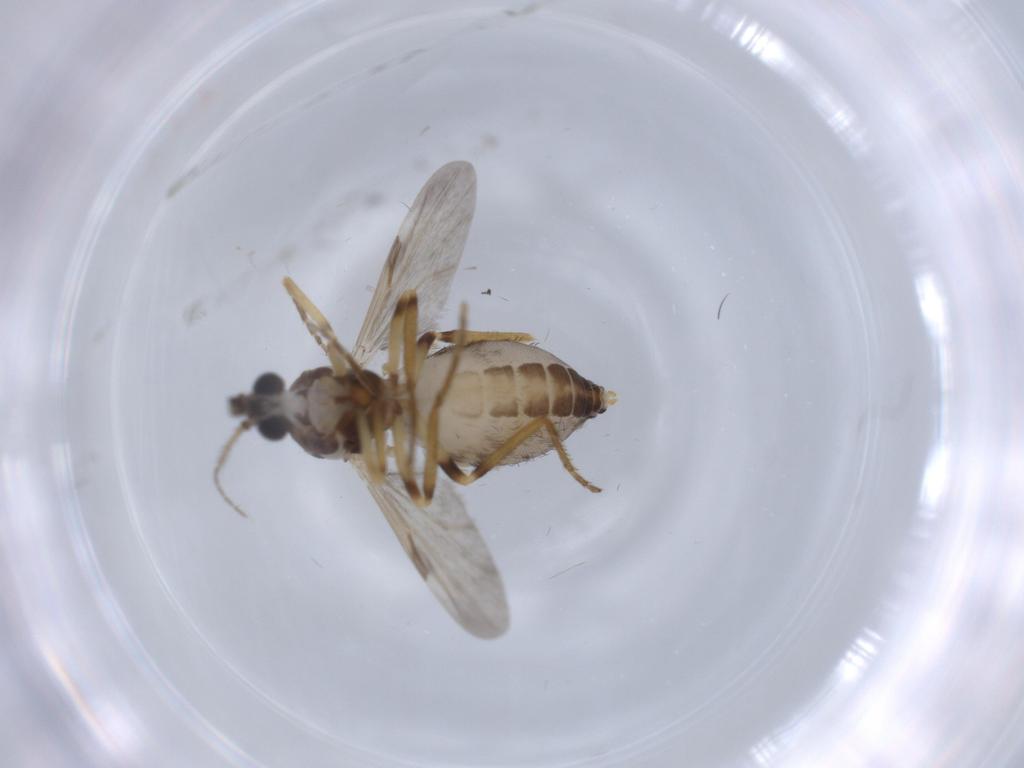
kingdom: Animalia
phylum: Arthropoda
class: Insecta
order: Diptera
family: Ceratopogonidae
